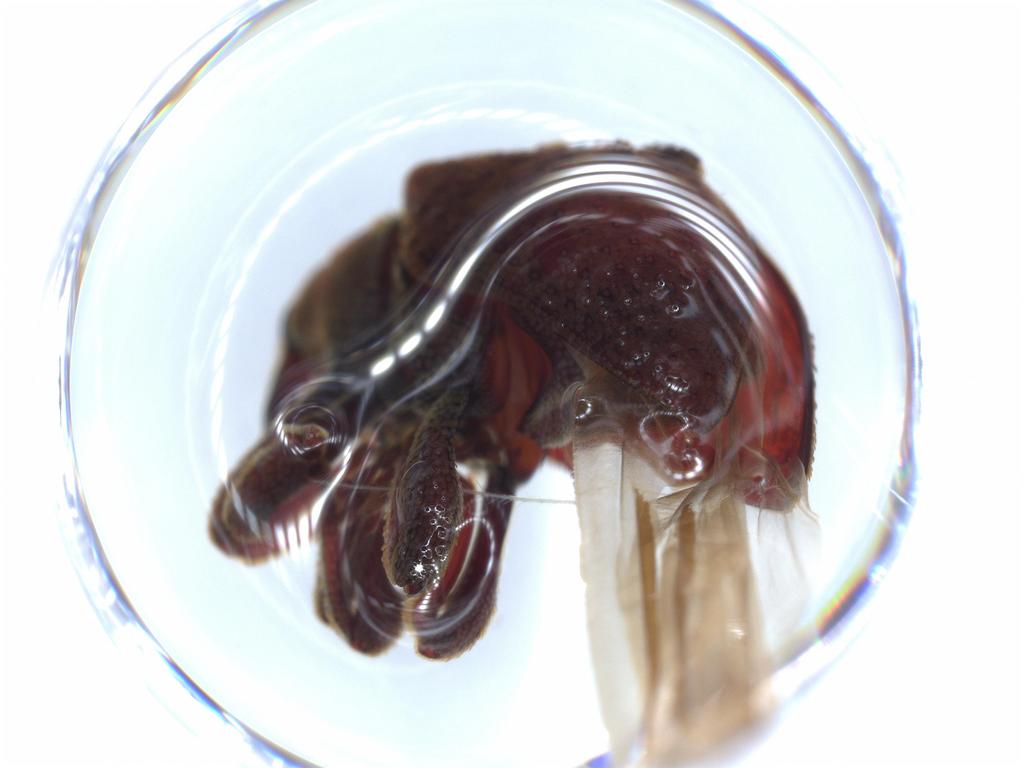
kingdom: Animalia
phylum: Arthropoda
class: Insecta
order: Coleoptera
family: Curculionidae
